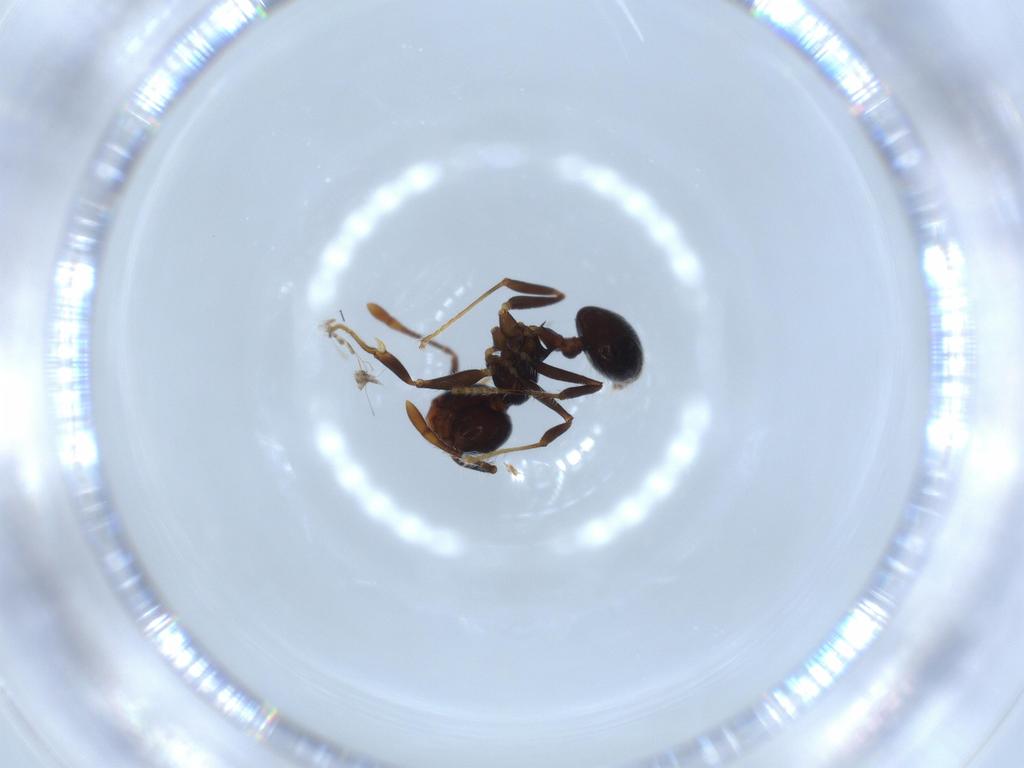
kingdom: Animalia
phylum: Arthropoda
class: Insecta
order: Hymenoptera
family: Formicidae
